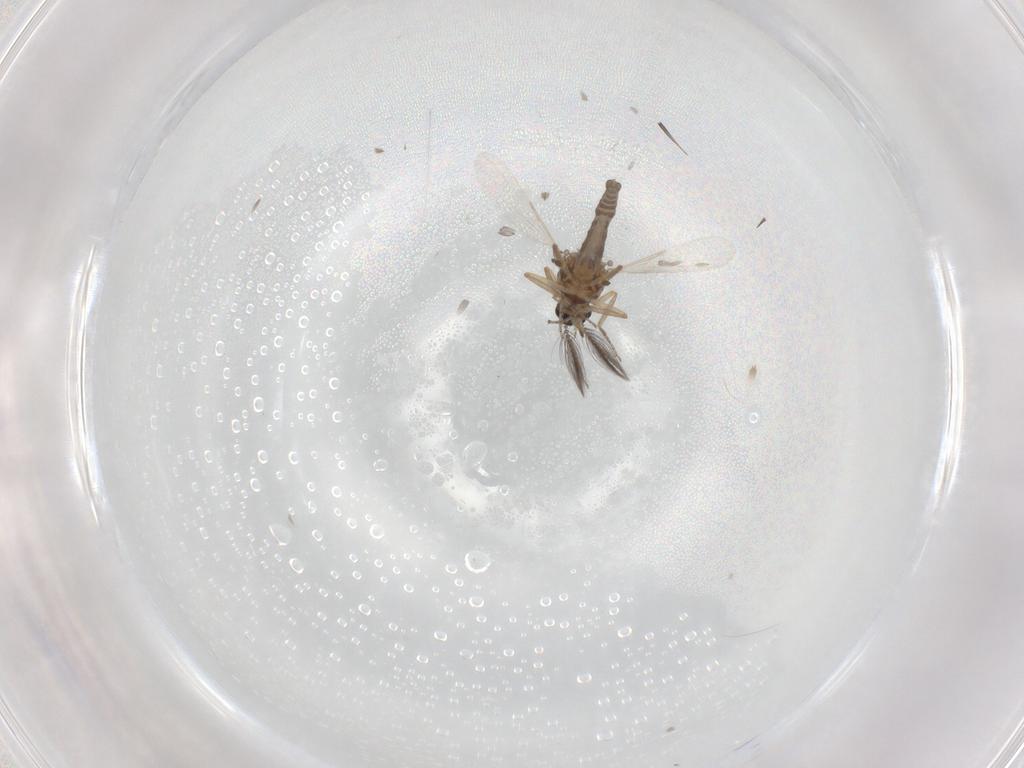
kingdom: Animalia
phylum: Arthropoda
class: Insecta
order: Diptera
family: Ceratopogonidae
